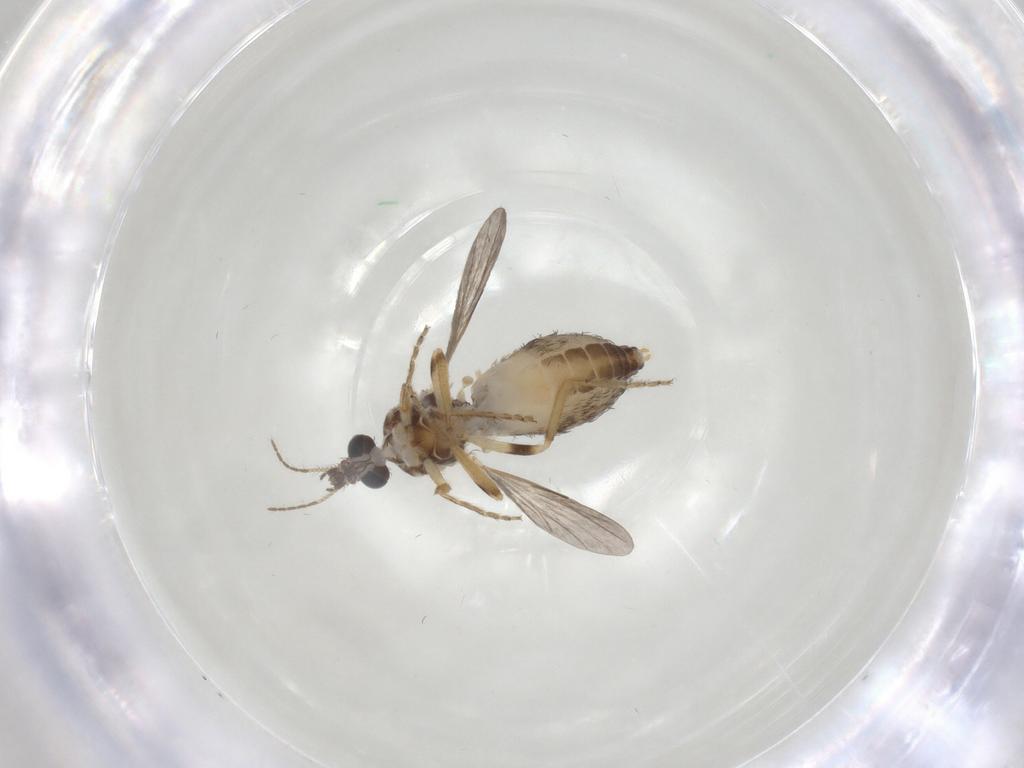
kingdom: Animalia
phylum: Arthropoda
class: Insecta
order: Diptera
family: Ceratopogonidae
